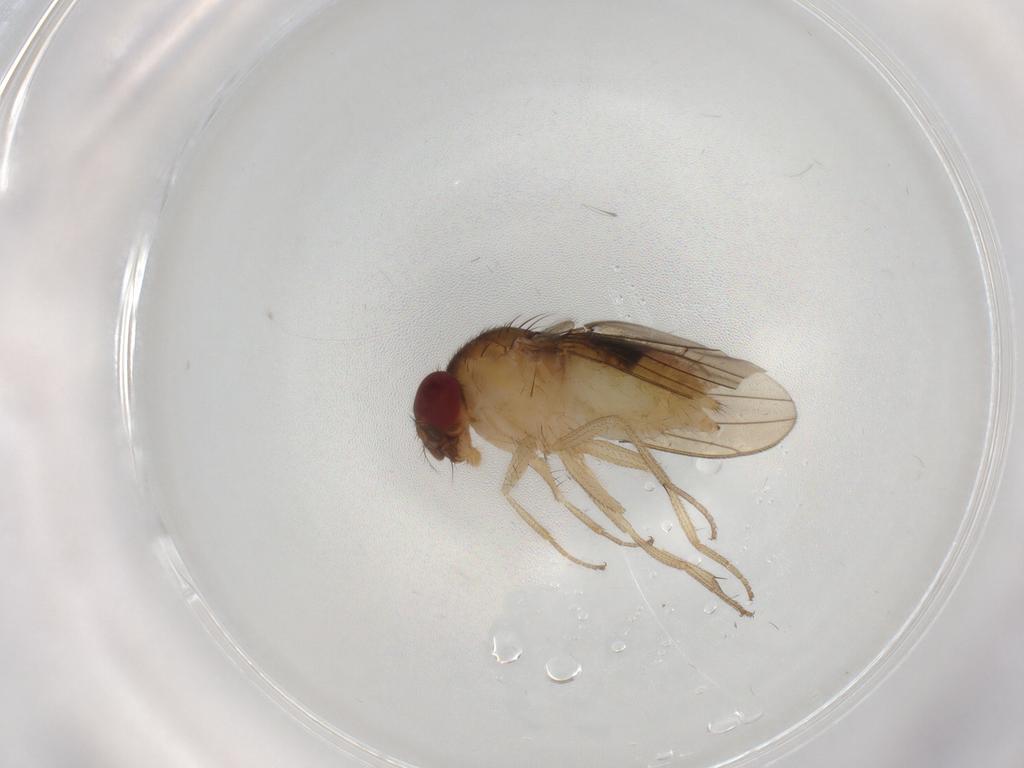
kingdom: Animalia
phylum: Arthropoda
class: Insecta
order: Diptera
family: Drosophilidae
